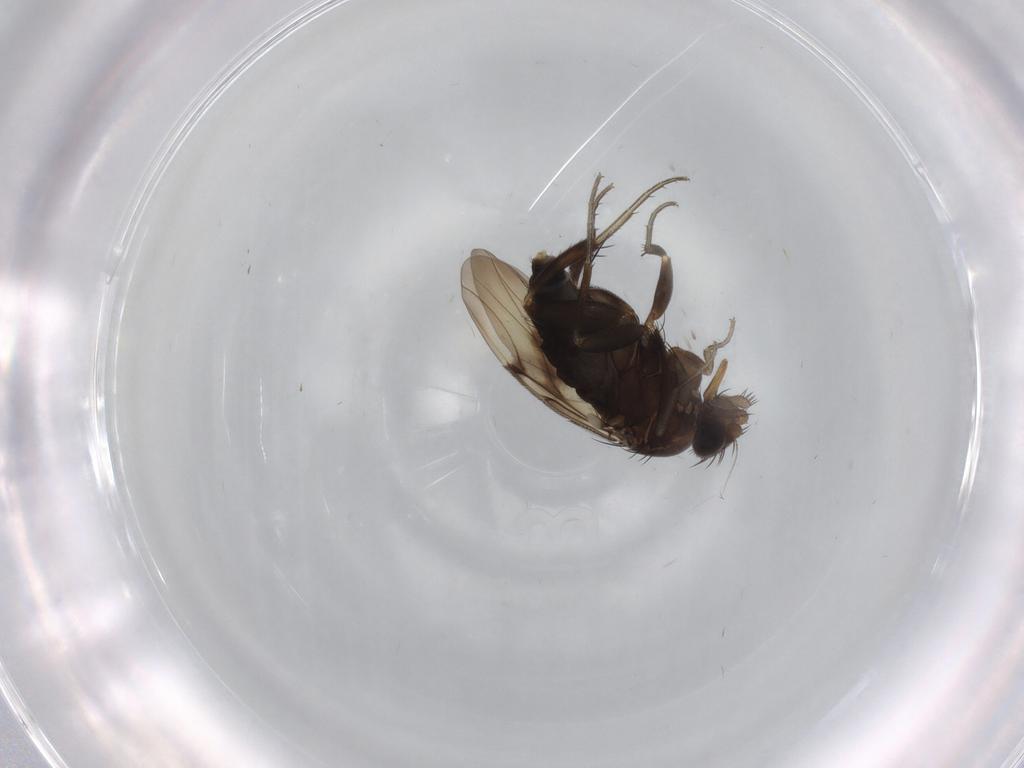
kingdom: Animalia
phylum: Arthropoda
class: Insecta
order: Diptera
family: Phoridae
